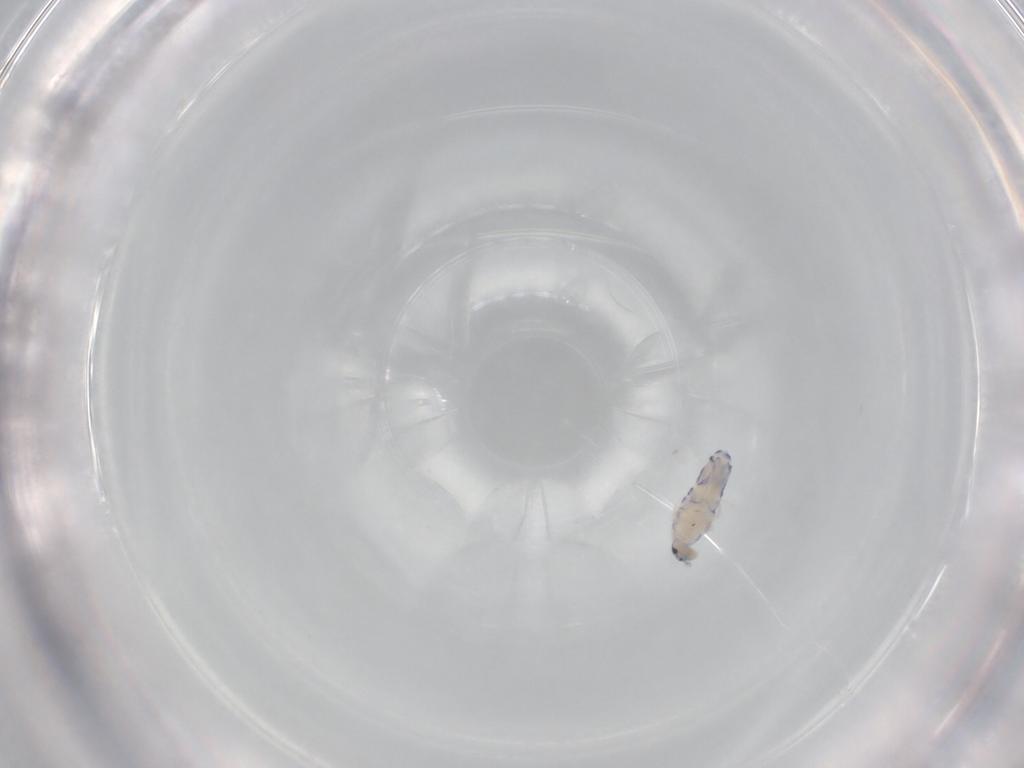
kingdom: Animalia
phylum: Arthropoda
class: Collembola
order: Entomobryomorpha
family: Entomobryidae
